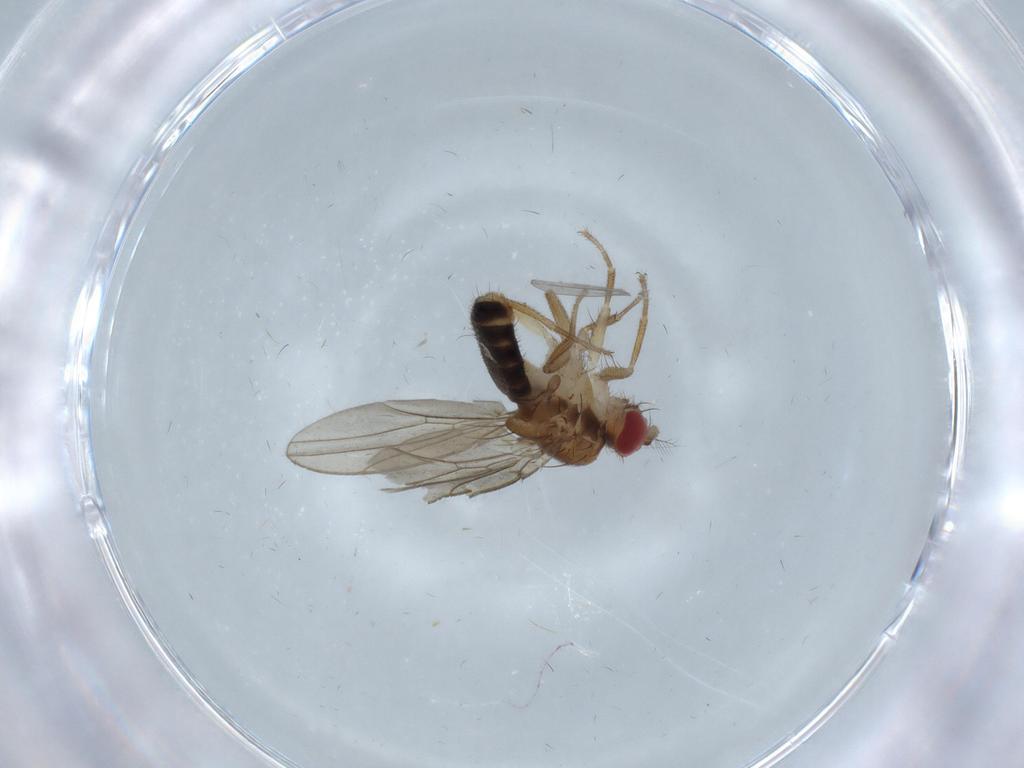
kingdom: Animalia
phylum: Arthropoda
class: Insecta
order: Diptera
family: Drosophilidae
